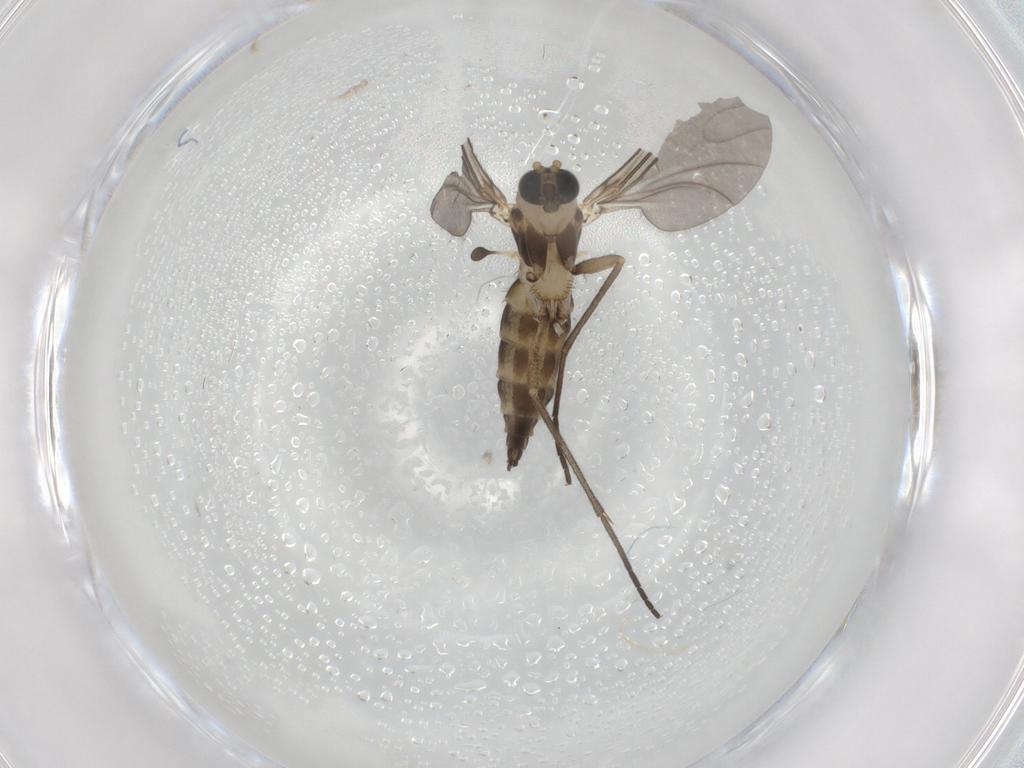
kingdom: Animalia
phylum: Arthropoda
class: Insecta
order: Diptera
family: Sciaridae
